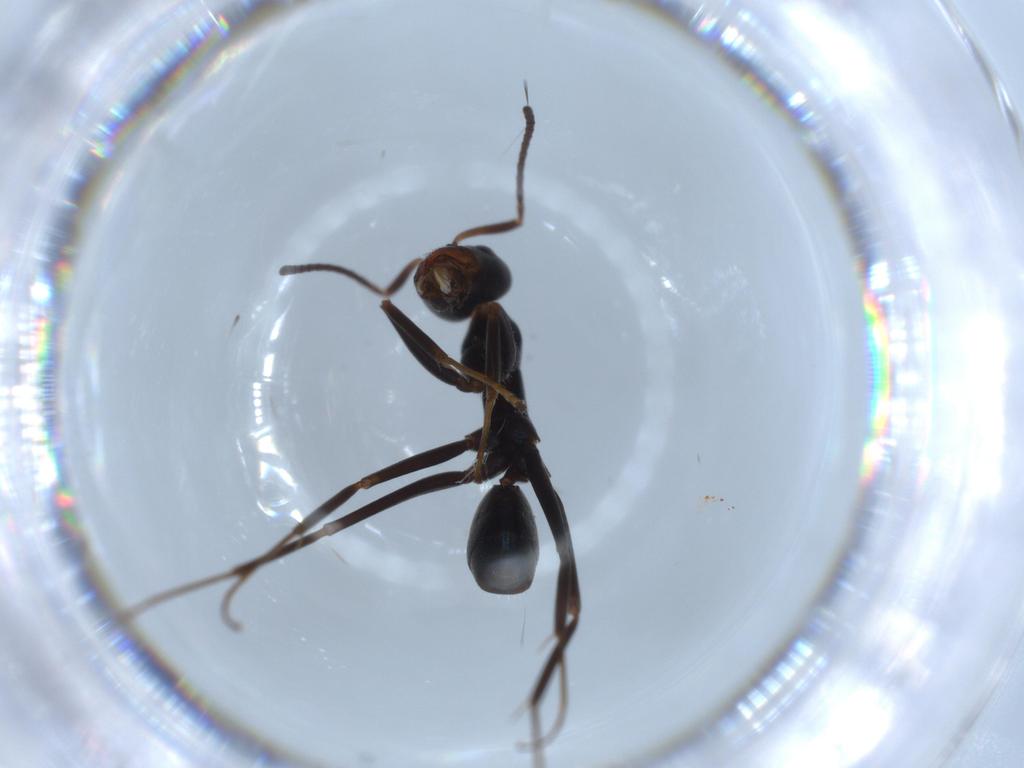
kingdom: Animalia
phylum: Arthropoda
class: Insecta
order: Hymenoptera
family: Formicidae
